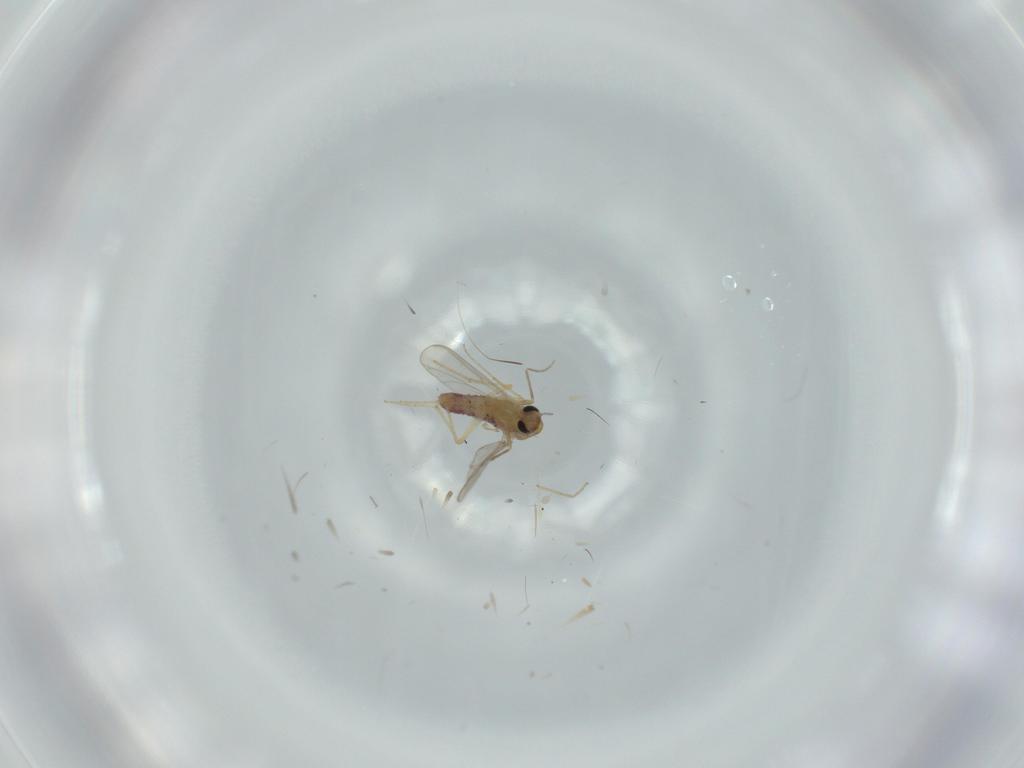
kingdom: Animalia
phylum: Arthropoda
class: Insecta
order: Diptera
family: Chironomidae
